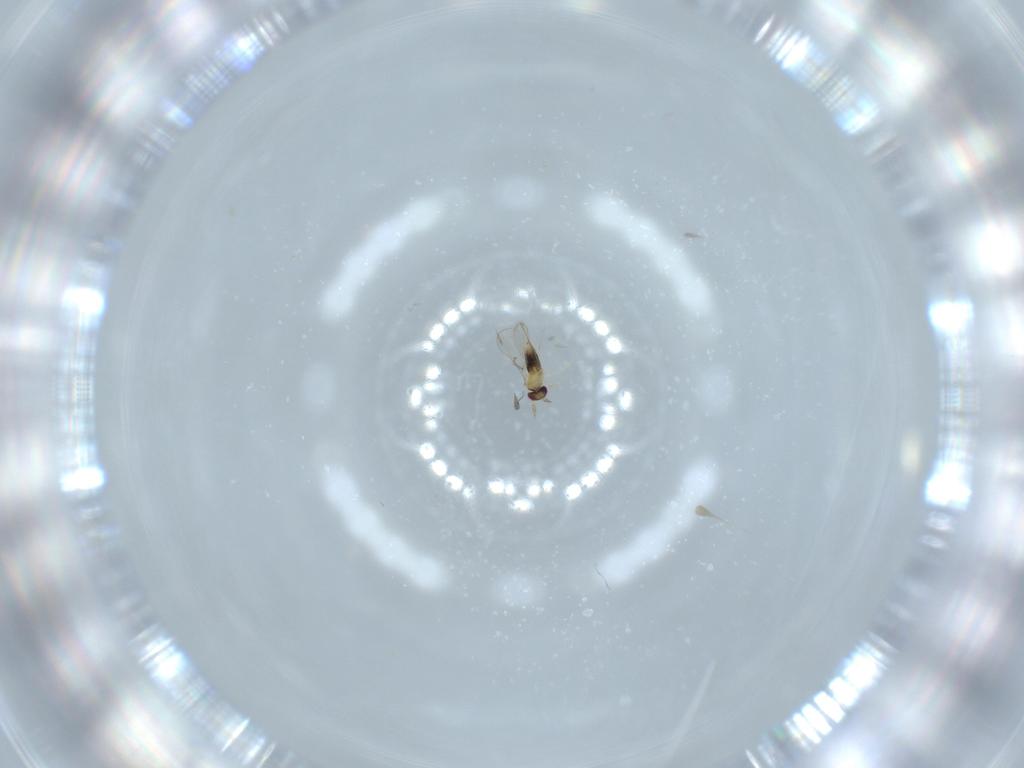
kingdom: Animalia
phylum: Arthropoda
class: Insecta
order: Hymenoptera
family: Trichogrammatidae
